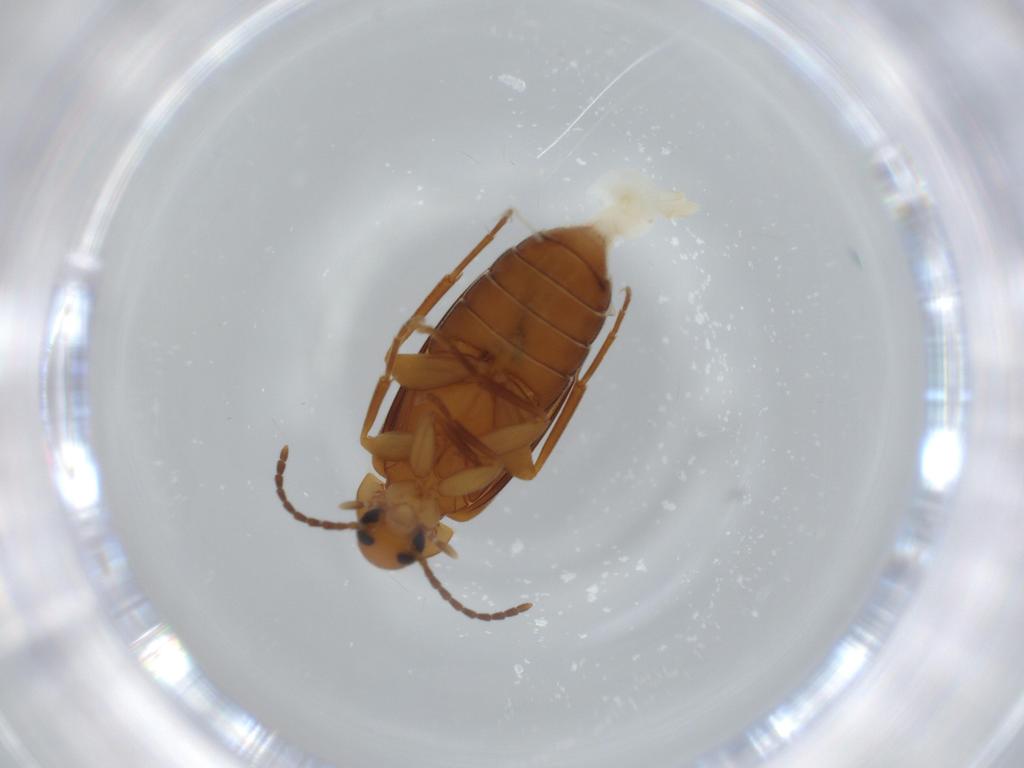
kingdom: Animalia
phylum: Arthropoda
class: Insecta
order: Coleoptera
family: Scraptiidae
